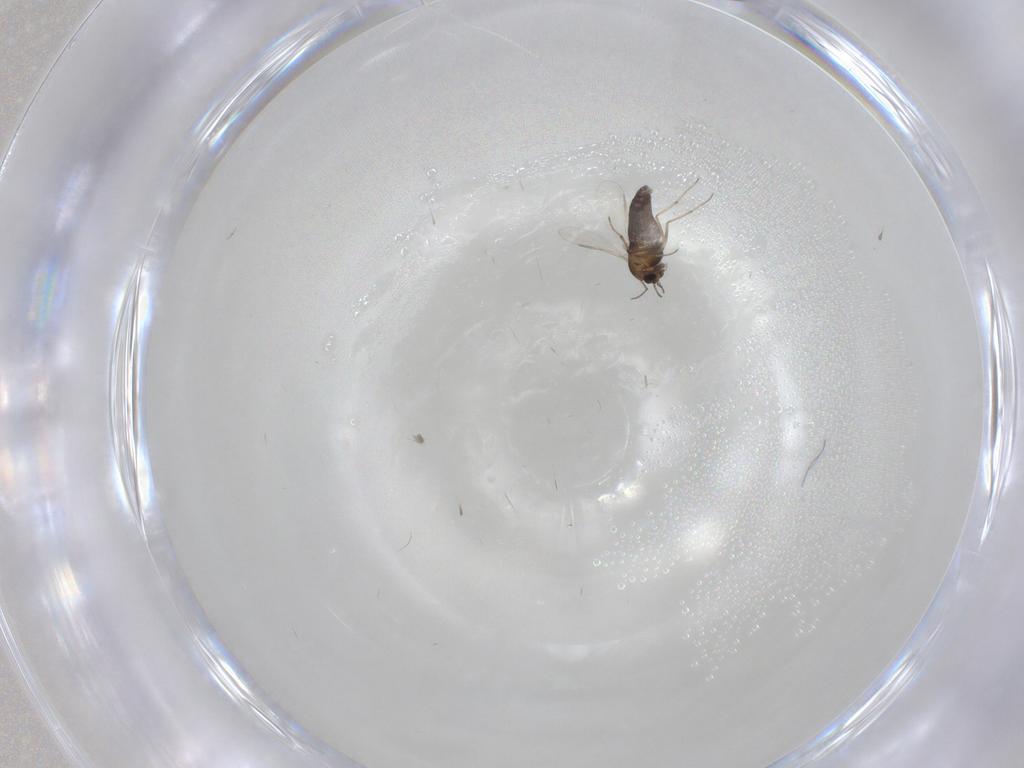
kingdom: Animalia
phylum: Arthropoda
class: Insecta
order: Diptera
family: Chironomidae
